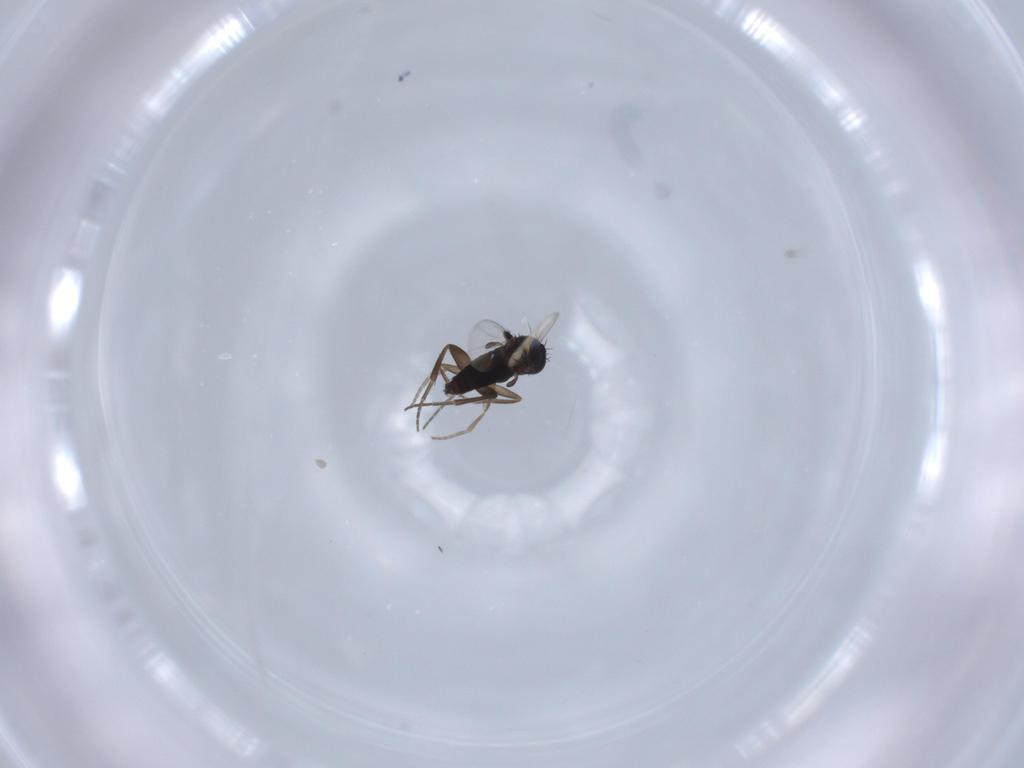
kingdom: Animalia
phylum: Arthropoda
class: Insecta
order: Diptera
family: Phoridae
